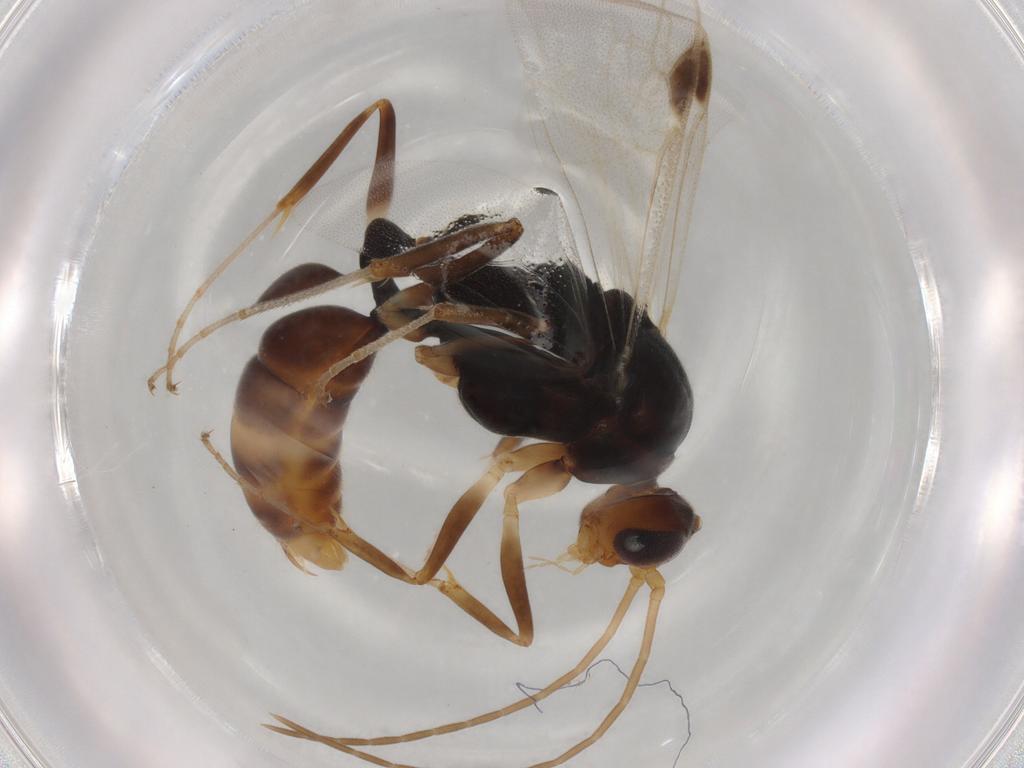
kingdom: Animalia
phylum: Arthropoda
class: Insecta
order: Hymenoptera
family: Formicidae
